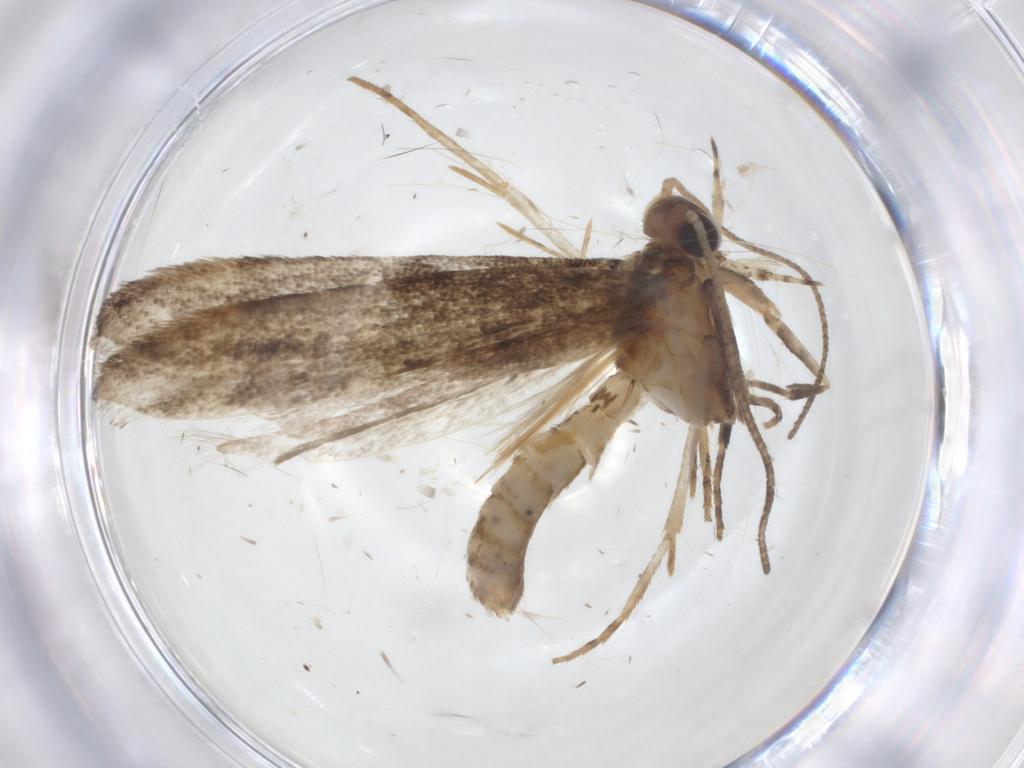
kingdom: Animalia
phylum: Arthropoda
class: Insecta
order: Lepidoptera
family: Gelechiidae
